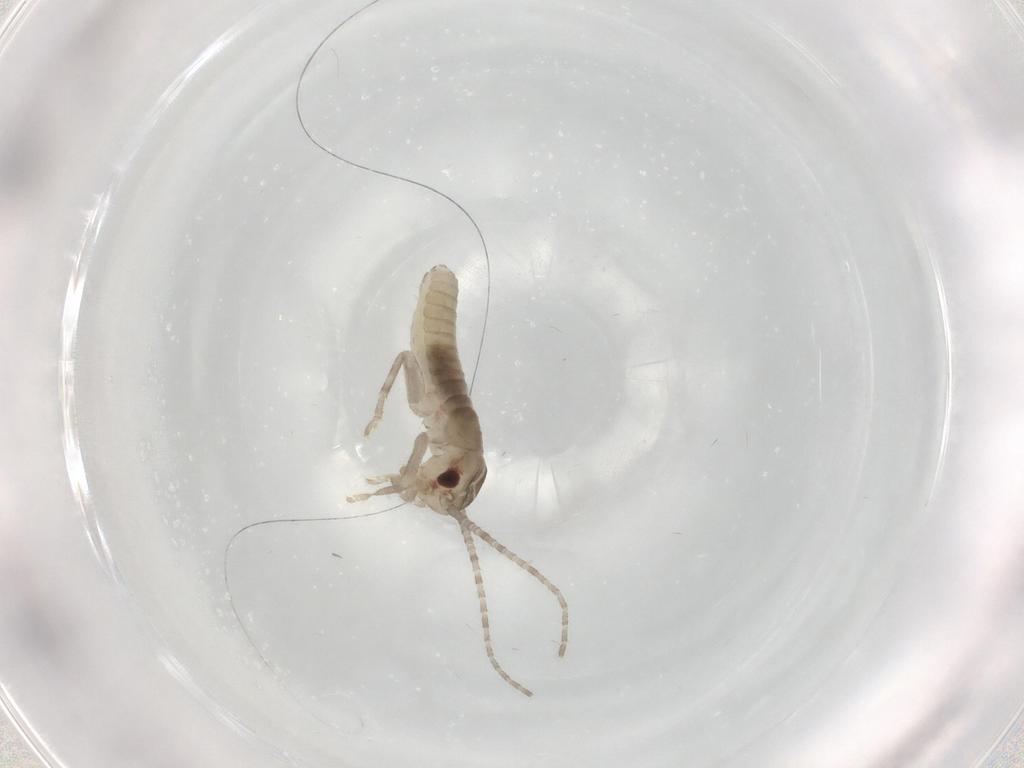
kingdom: Animalia
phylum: Arthropoda
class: Insecta
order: Orthoptera
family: Mogoplistidae
